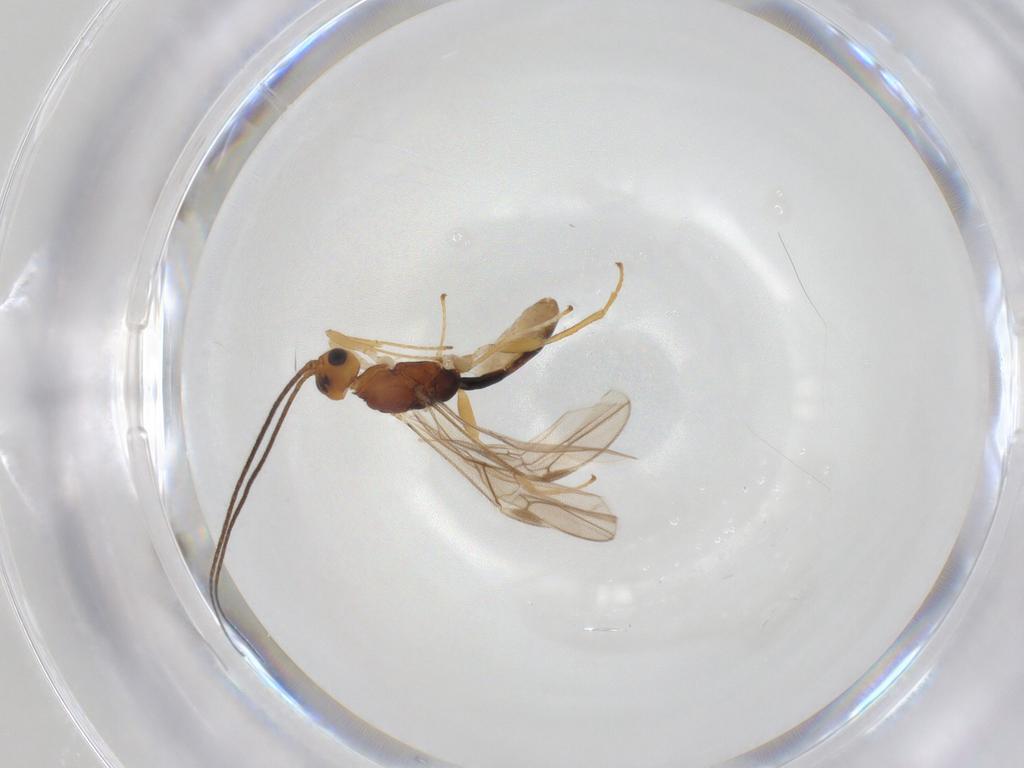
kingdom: Animalia
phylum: Arthropoda
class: Insecta
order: Hymenoptera
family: Braconidae
